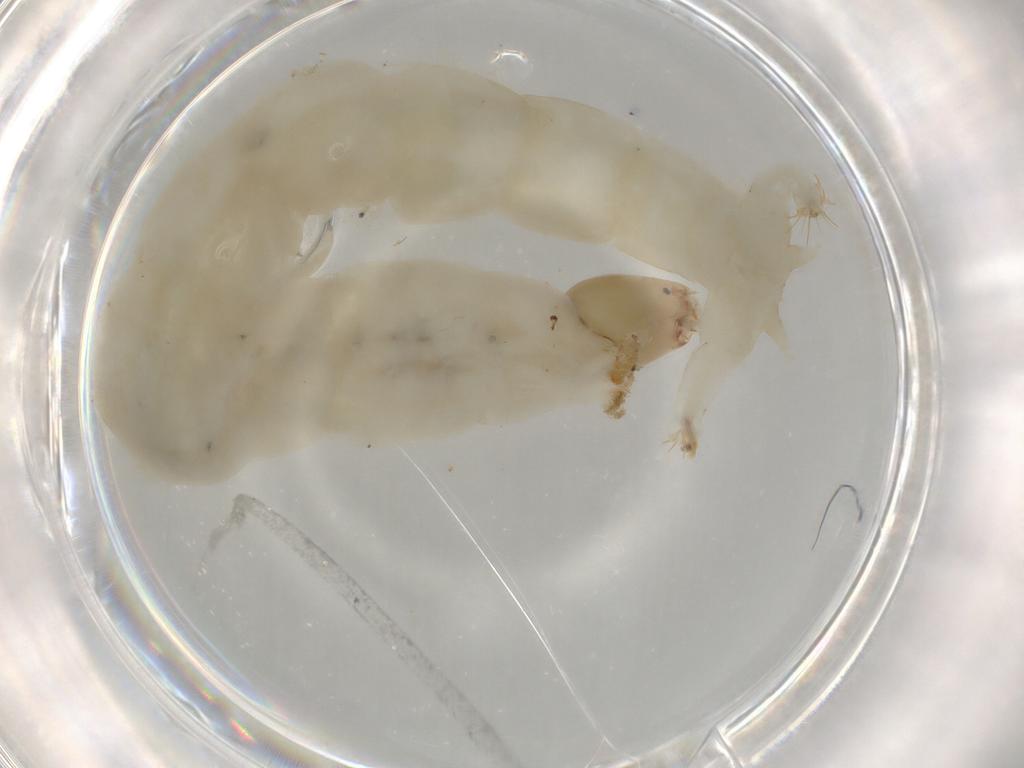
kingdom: Animalia
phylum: Arthropoda
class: Insecta
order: Diptera
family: Chironomidae
